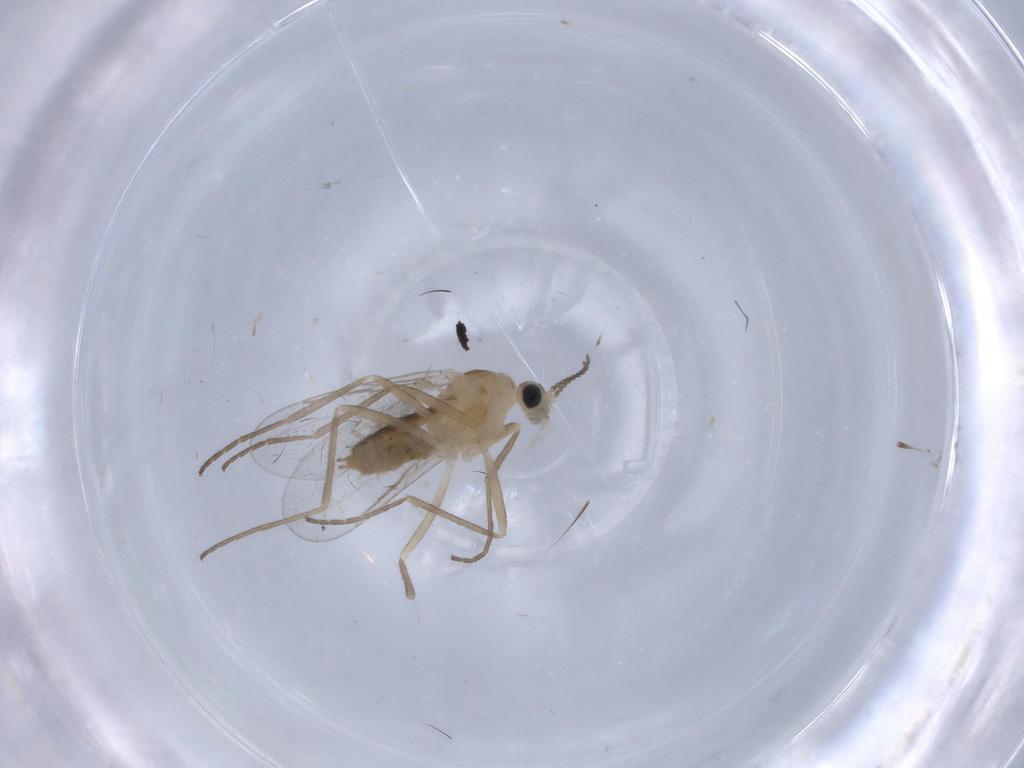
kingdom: Animalia
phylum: Arthropoda
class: Insecta
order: Diptera
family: Cecidomyiidae
